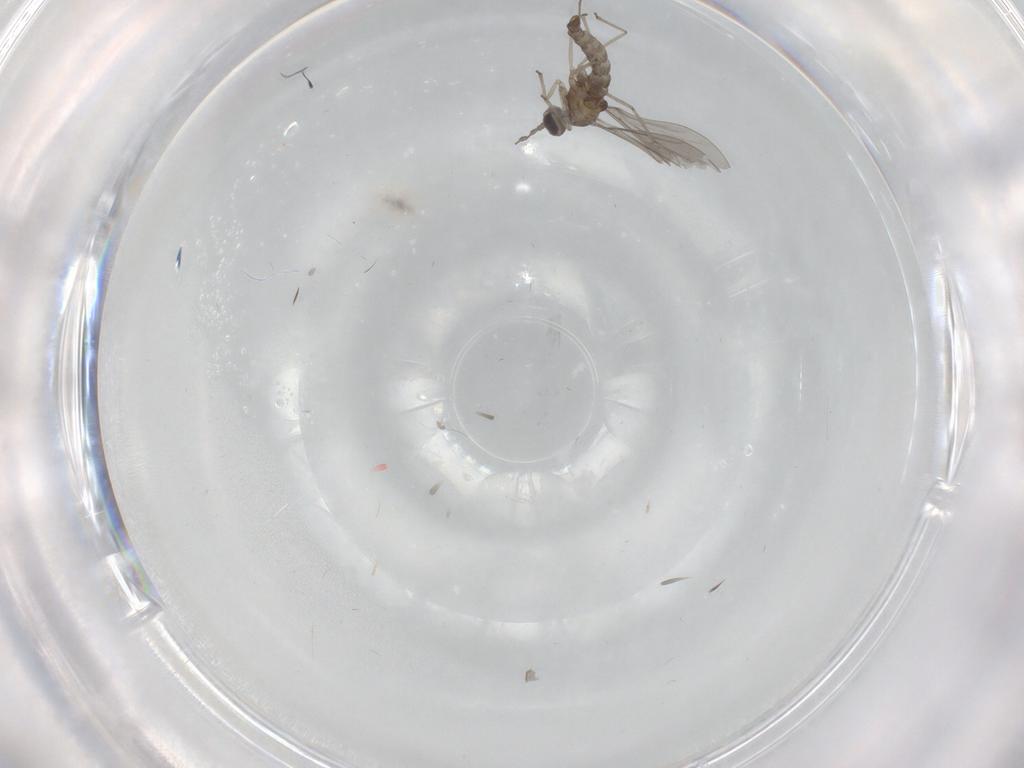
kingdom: Animalia
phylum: Arthropoda
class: Insecta
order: Diptera
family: Cecidomyiidae
